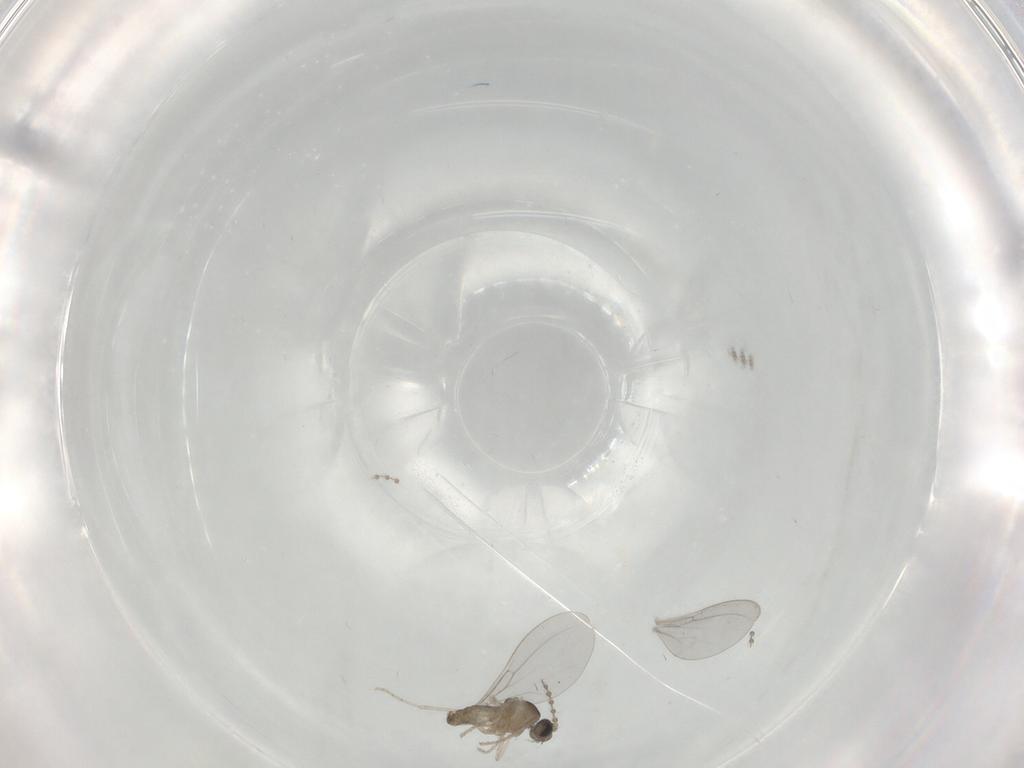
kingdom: Animalia
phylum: Arthropoda
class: Insecta
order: Diptera
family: Cecidomyiidae
